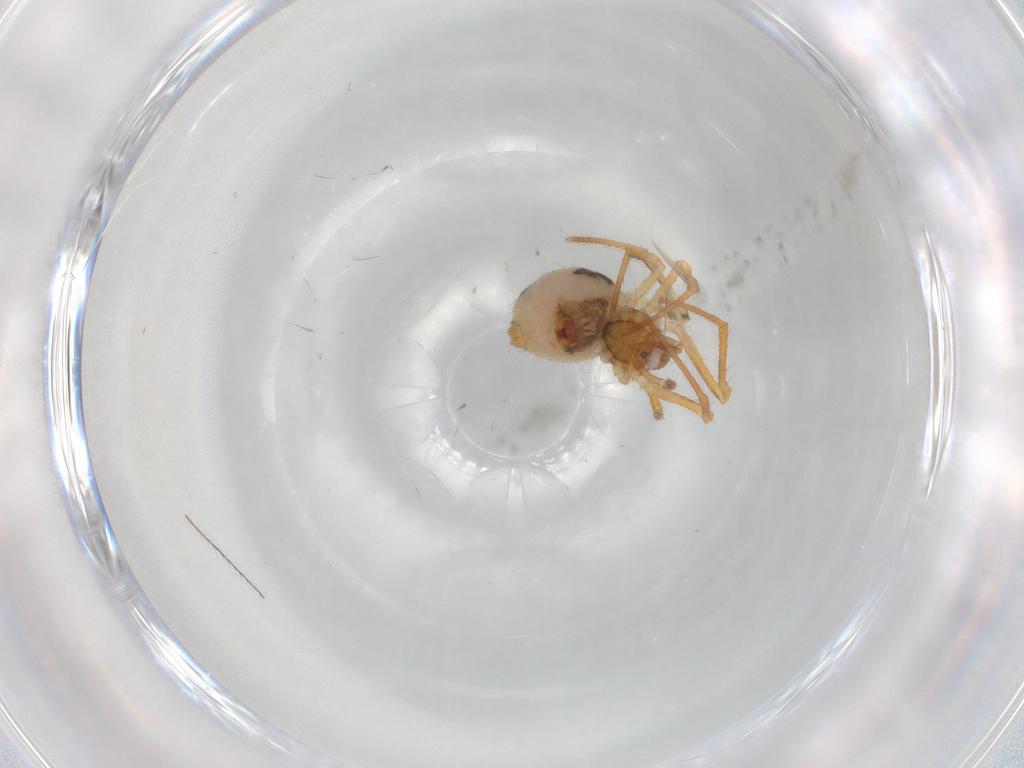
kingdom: Animalia
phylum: Arthropoda
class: Arachnida
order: Araneae
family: Theridiidae
